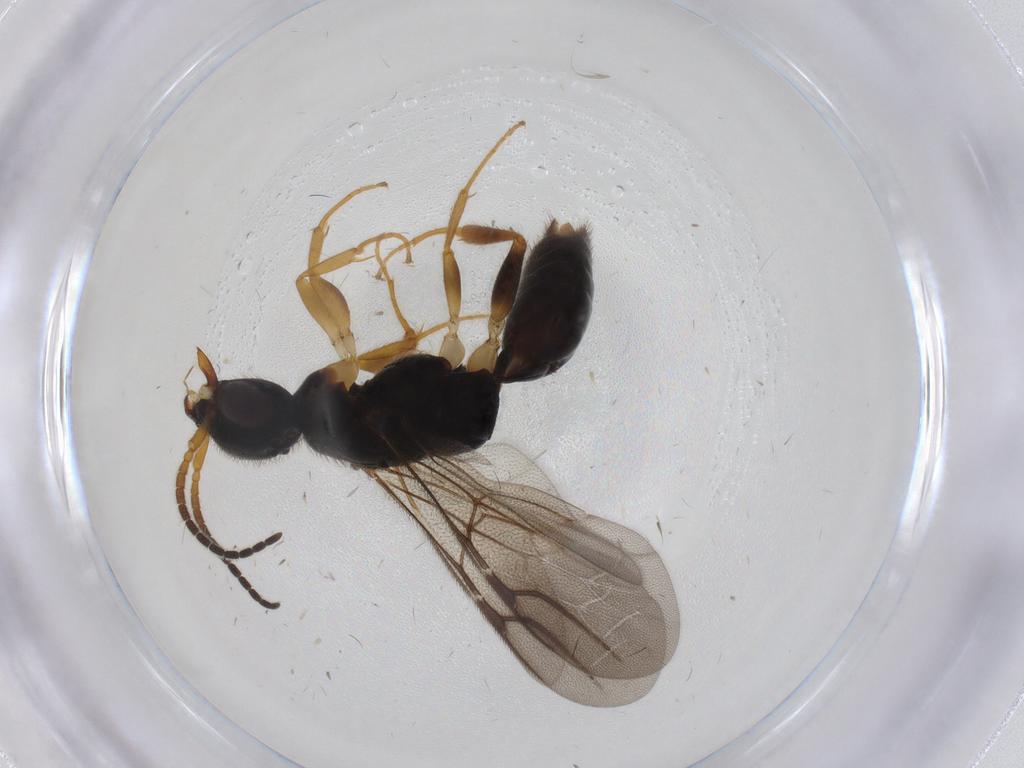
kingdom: Animalia
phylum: Arthropoda
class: Insecta
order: Hymenoptera
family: Bethylidae
